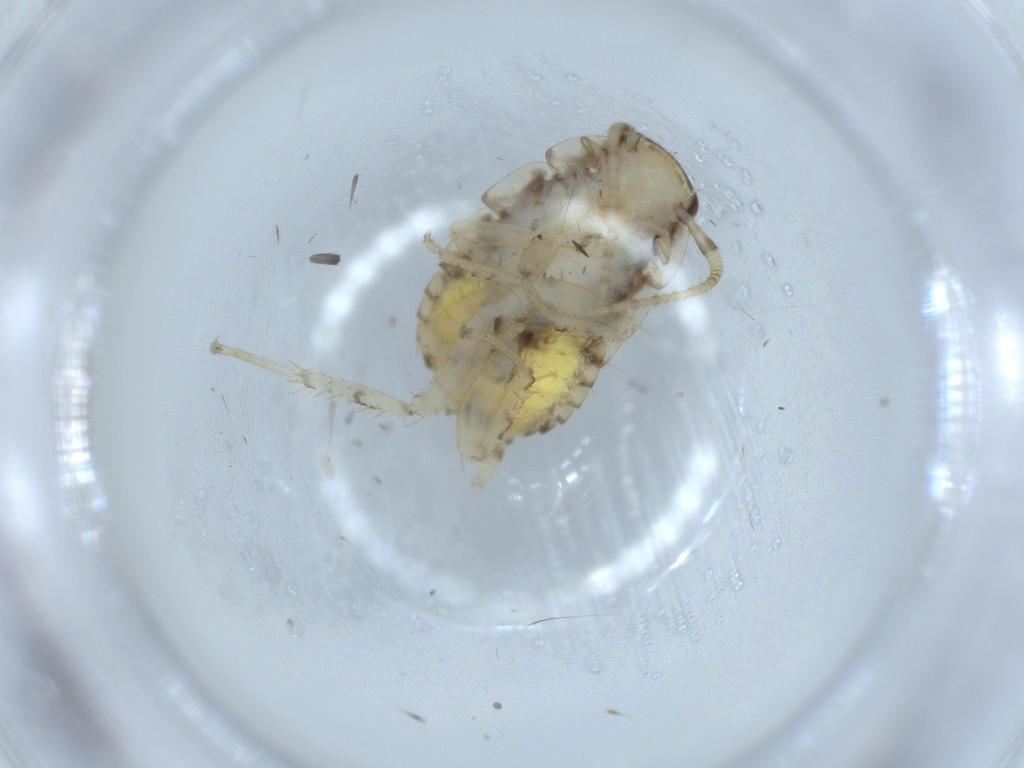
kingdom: Animalia
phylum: Arthropoda
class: Insecta
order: Blattodea
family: Ectobiidae
